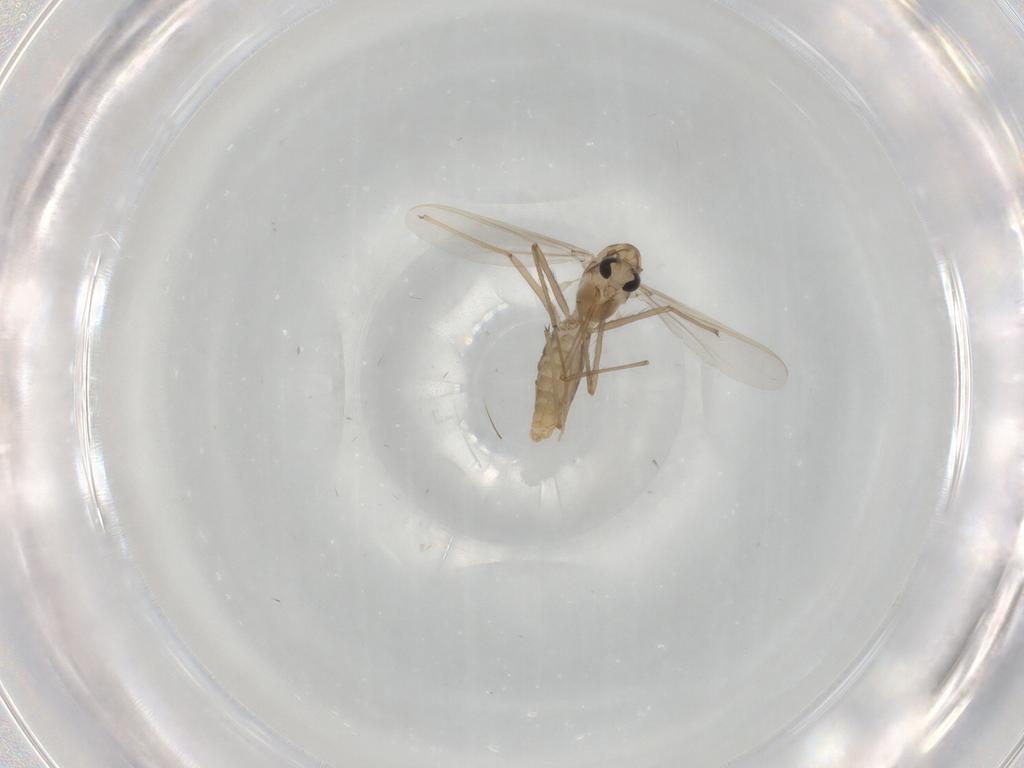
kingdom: Animalia
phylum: Arthropoda
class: Insecta
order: Diptera
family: Chironomidae
